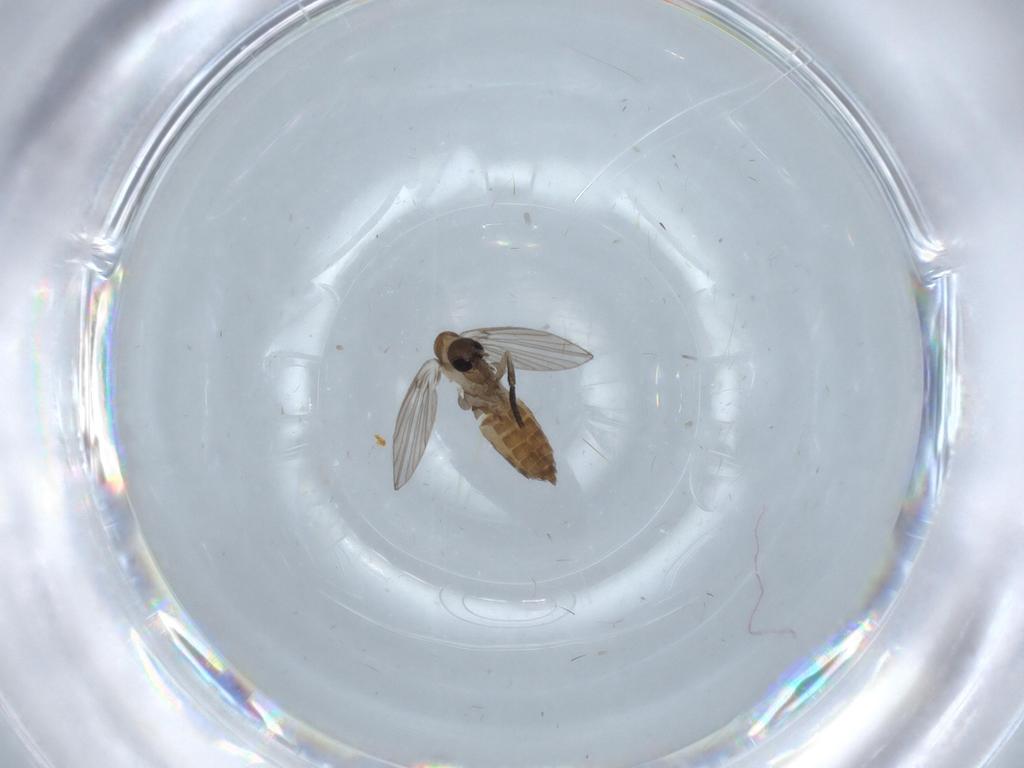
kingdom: Animalia
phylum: Arthropoda
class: Insecta
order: Diptera
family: Psychodidae
